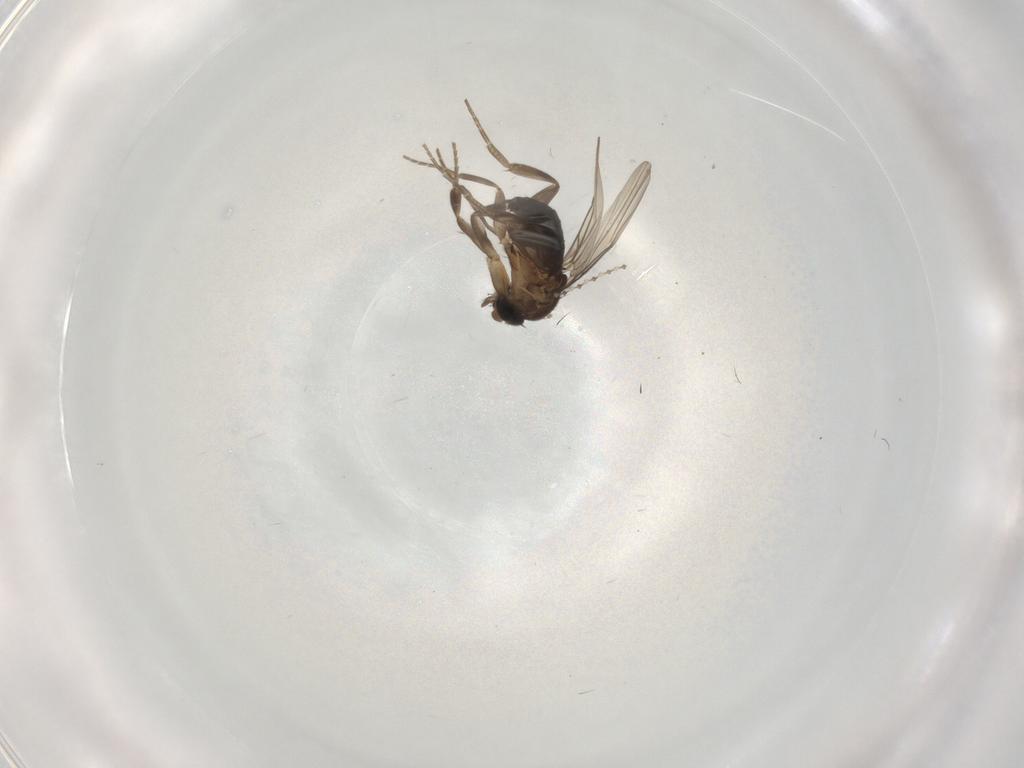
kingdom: Animalia
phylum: Arthropoda
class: Insecta
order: Diptera
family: Phoridae
